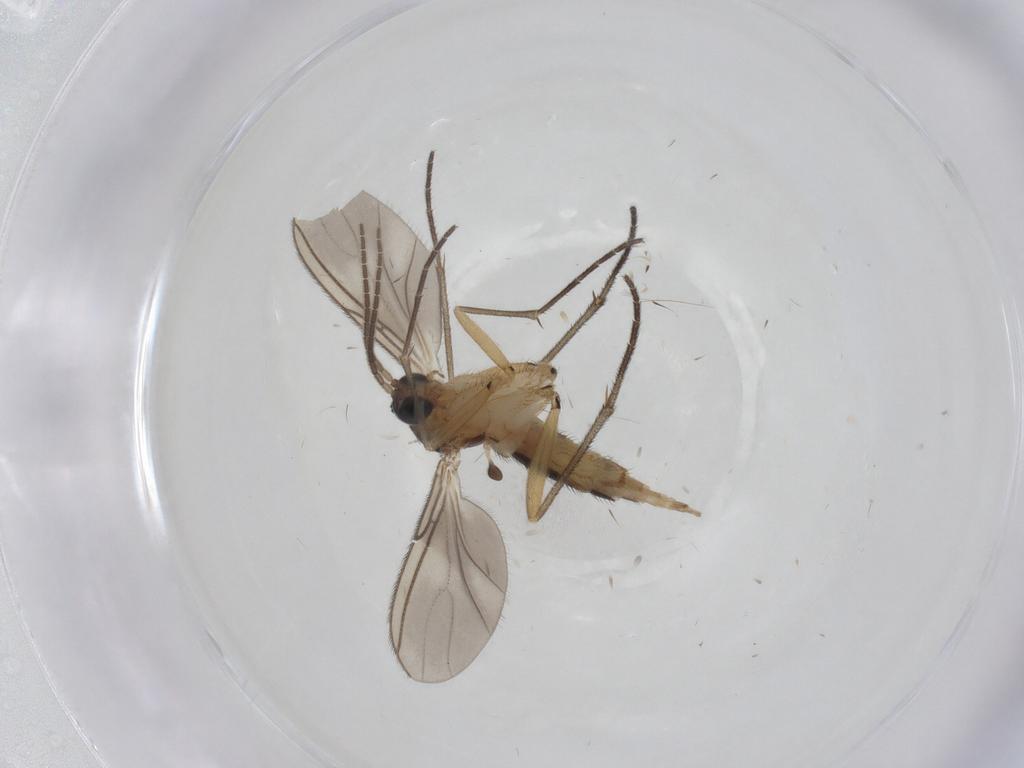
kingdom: Animalia
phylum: Arthropoda
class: Insecta
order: Diptera
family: Sciaridae
